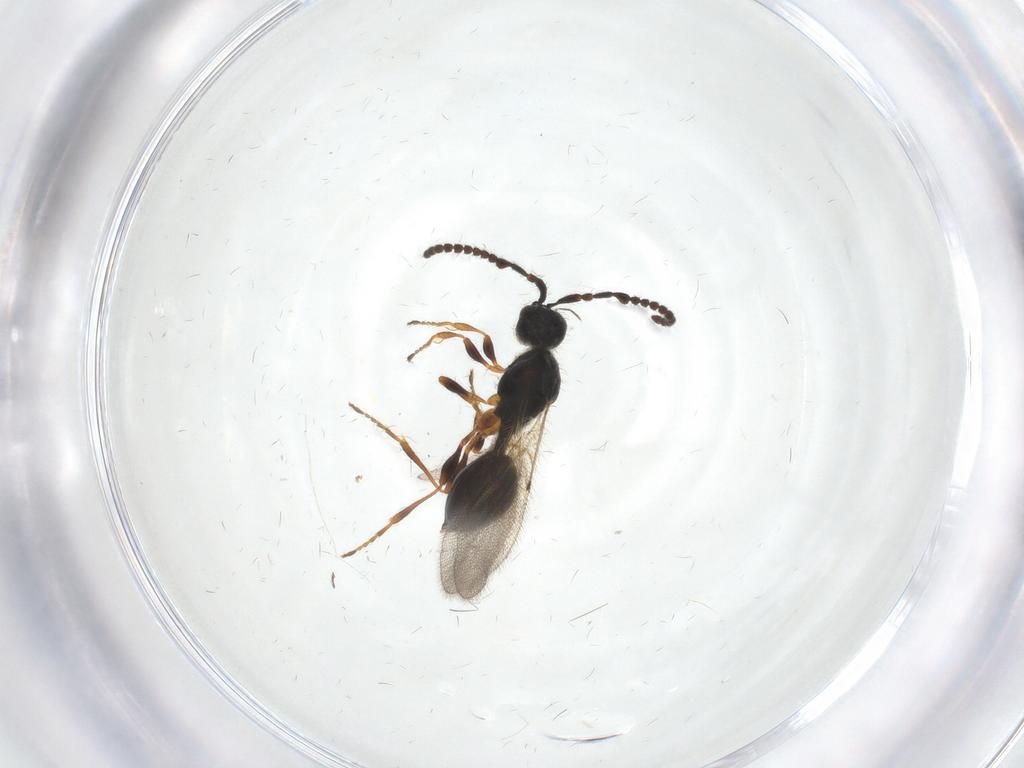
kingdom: Animalia
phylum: Arthropoda
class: Insecta
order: Hymenoptera
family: Diapriidae
